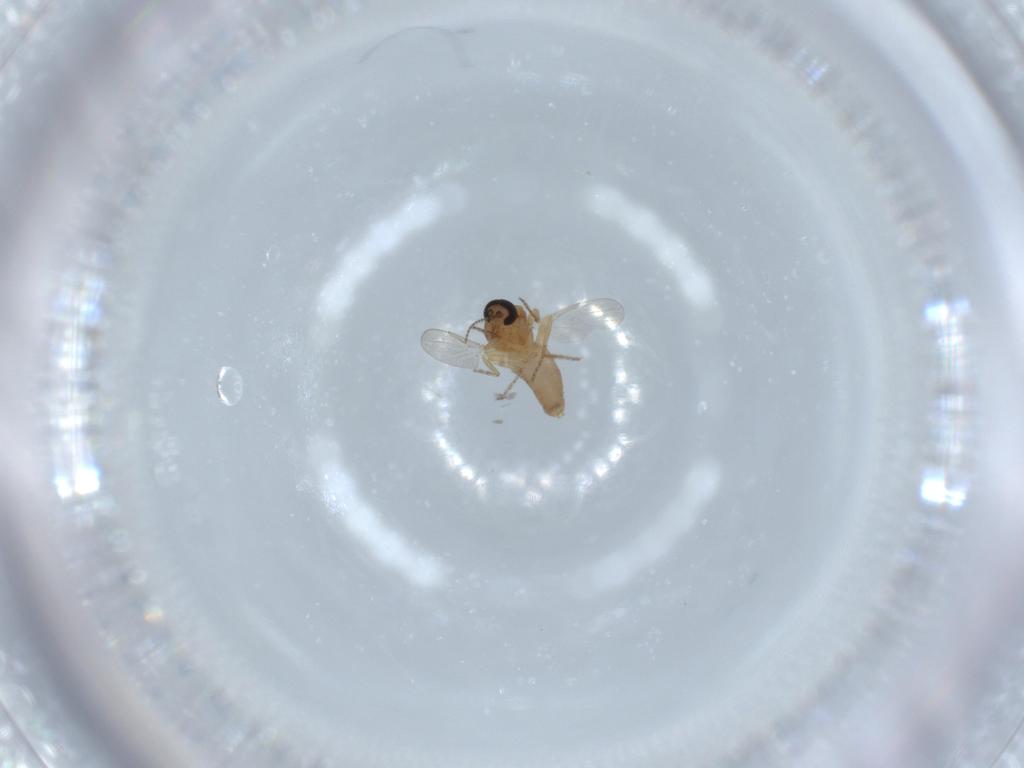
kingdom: Animalia
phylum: Arthropoda
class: Insecta
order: Diptera
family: Ceratopogonidae
